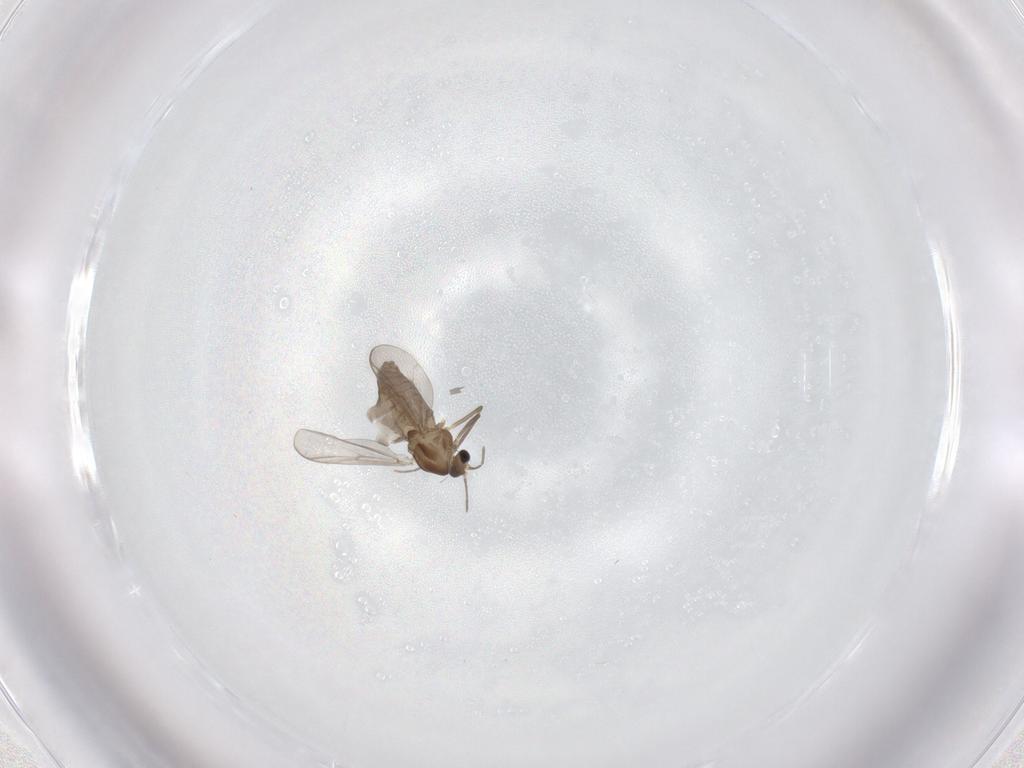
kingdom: Animalia
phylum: Arthropoda
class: Insecta
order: Diptera
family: Chironomidae
